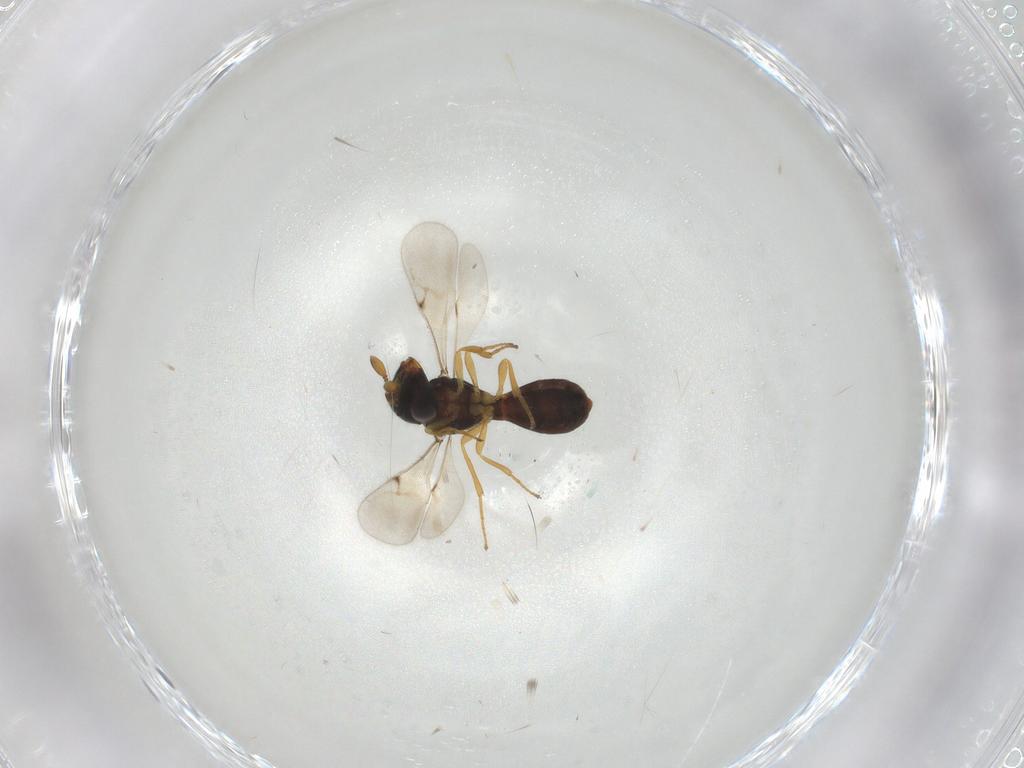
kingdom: Animalia
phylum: Arthropoda
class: Insecta
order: Hymenoptera
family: Scelionidae
